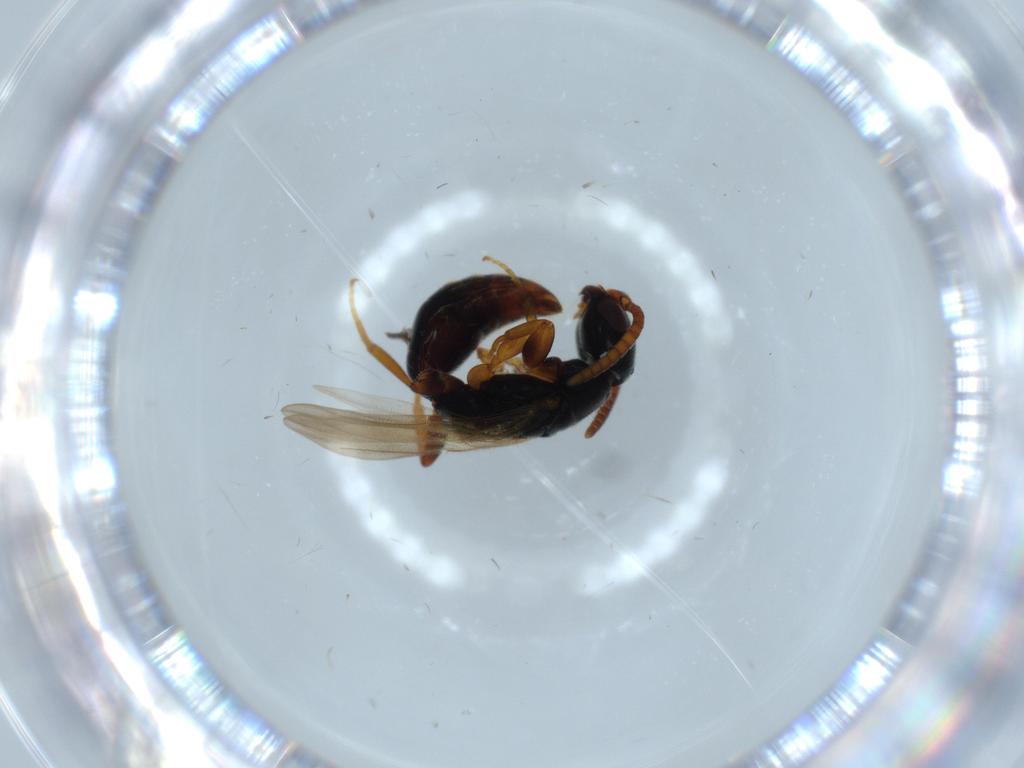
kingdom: Animalia
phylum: Arthropoda
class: Insecta
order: Hymenoptera
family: Bethylidae
